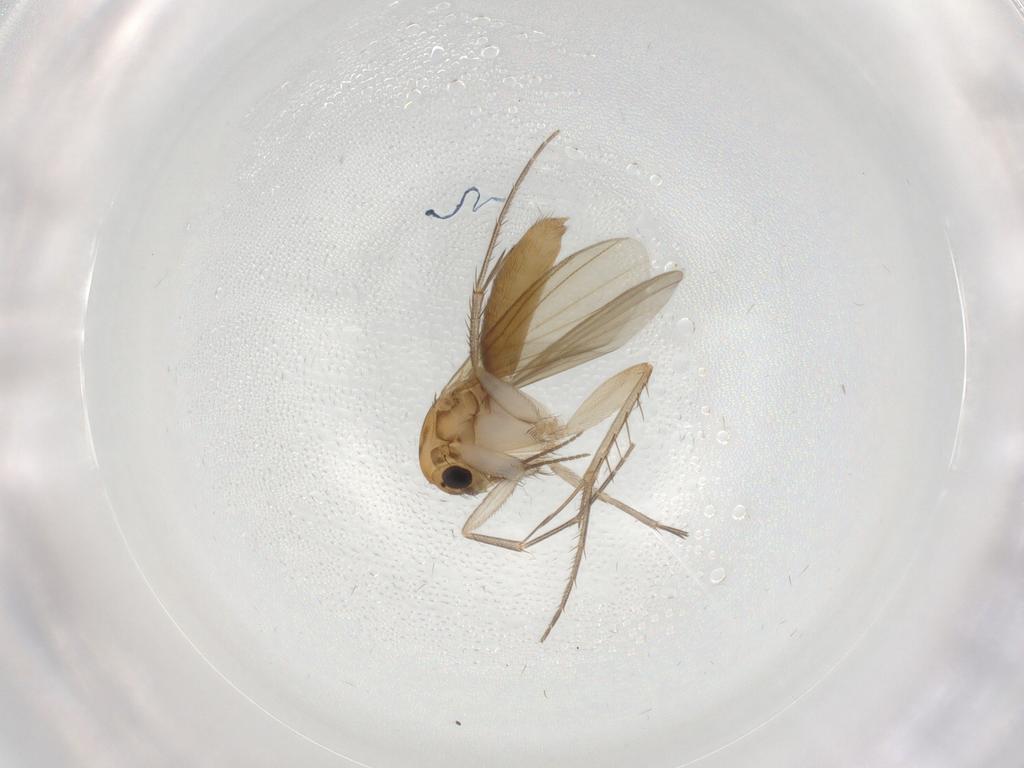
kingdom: Animalia
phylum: Arthropoda
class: Insecta
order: Diptera
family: Cecidomyiidae
